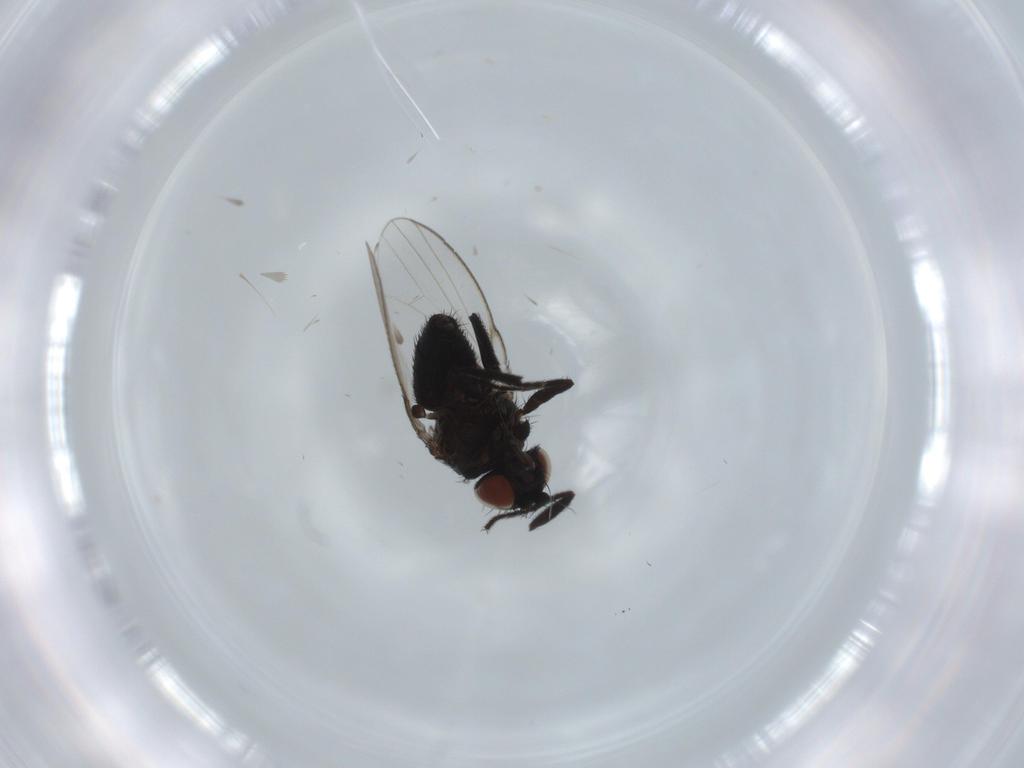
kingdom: Animalia
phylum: Arthropoda
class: Insecta
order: Diptera
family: Milichiidae
